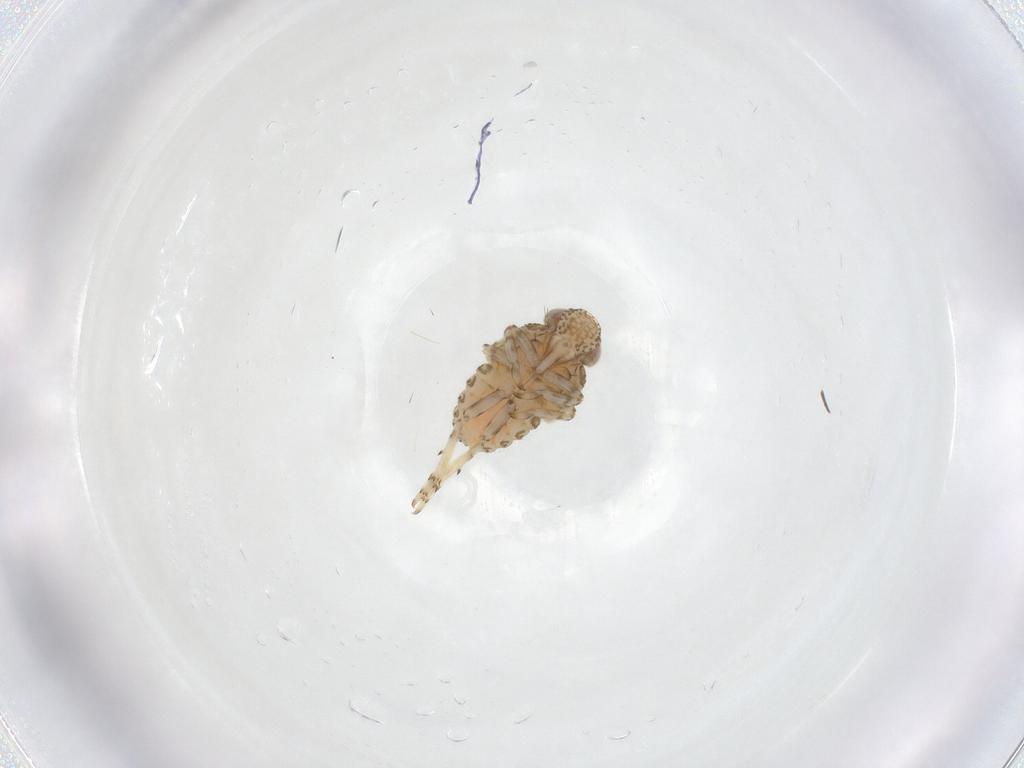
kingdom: Animalia
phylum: Arthropoda
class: Insecta
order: Hemiptera
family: Issidae
